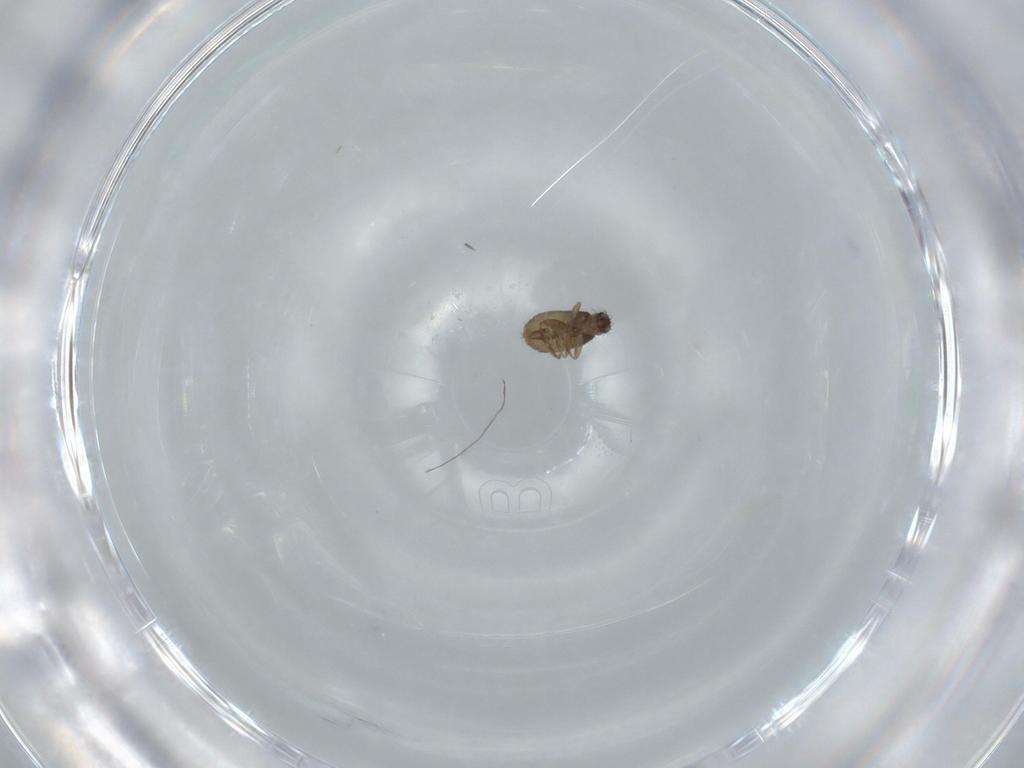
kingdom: Animalia
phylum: Arthropoda
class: Insecta
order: Diptera
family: Phoridae
